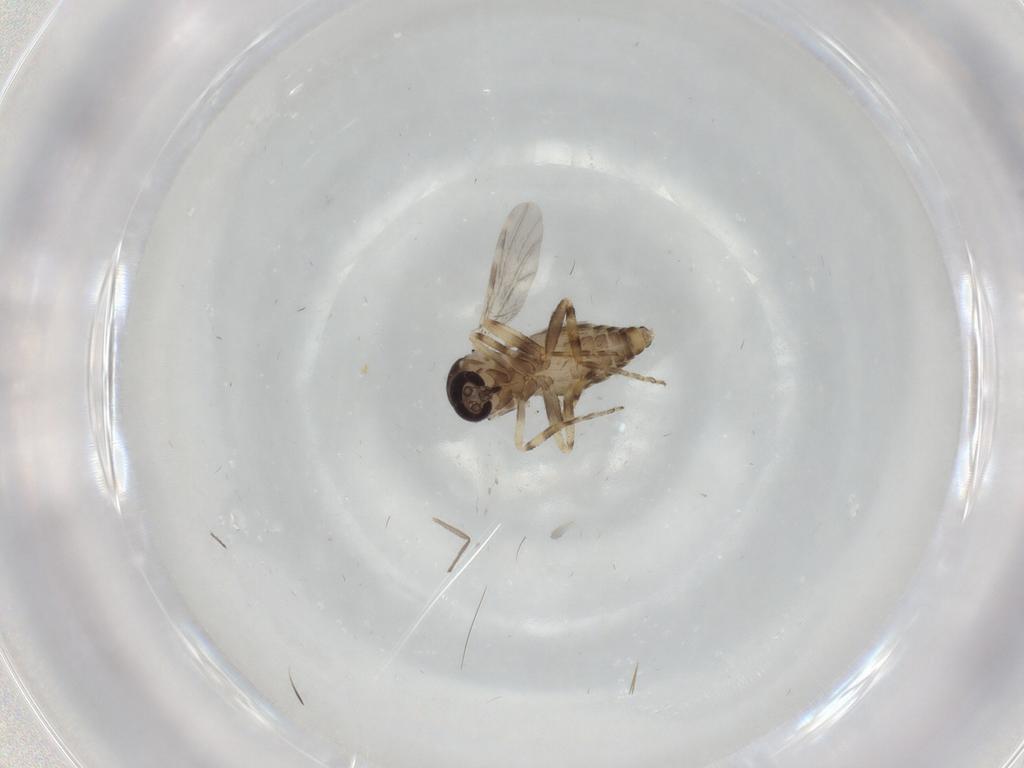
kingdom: Animalia
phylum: Arthropoda
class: Insecta
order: Diptera
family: Ceratopogonidae
